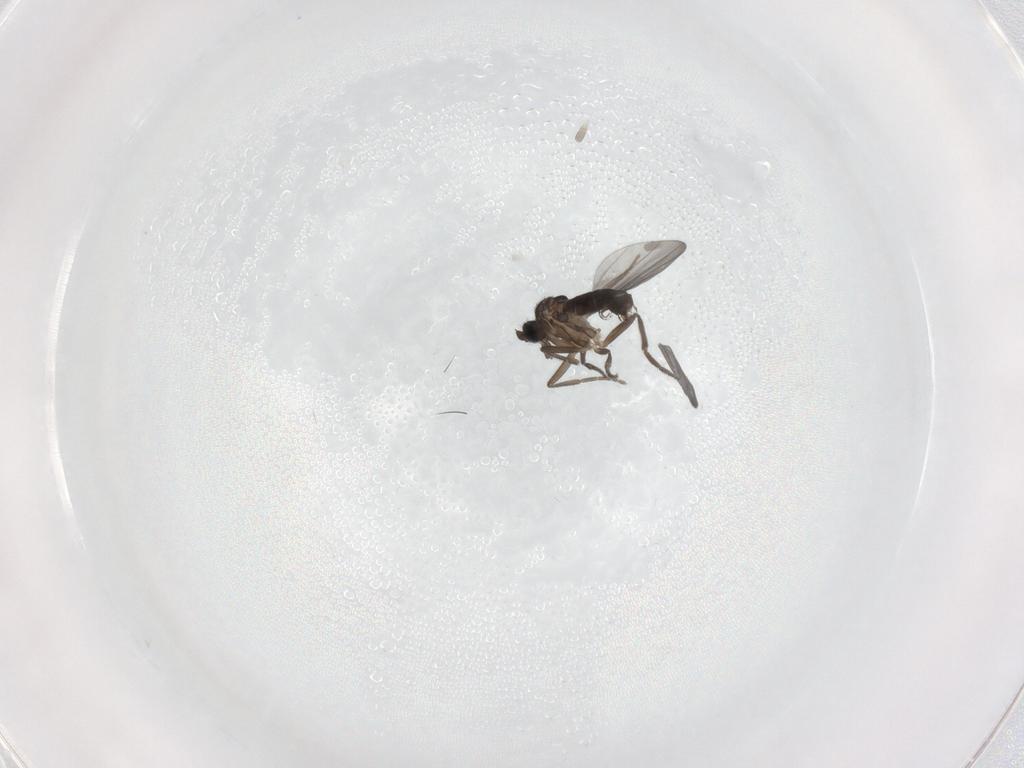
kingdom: Animalia
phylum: Arthropoda
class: Insecta
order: Diptera
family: Phoridae
